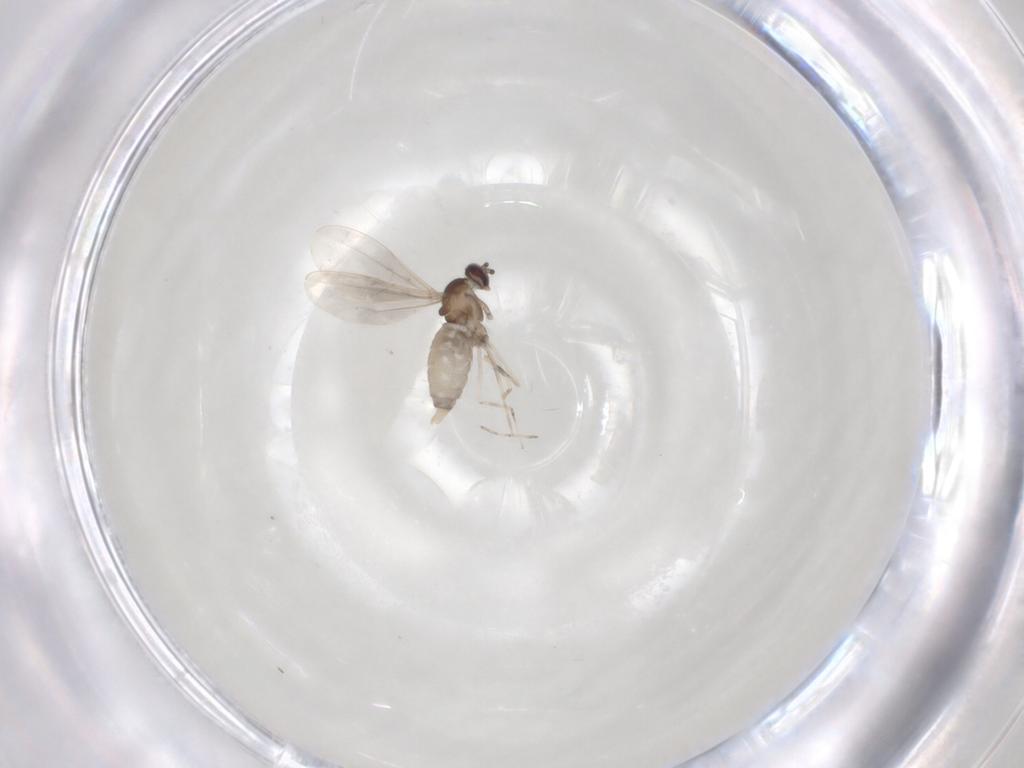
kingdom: Animalia
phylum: Arthropoda
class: Insecta
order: Diptera
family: Cecidomyiidae
